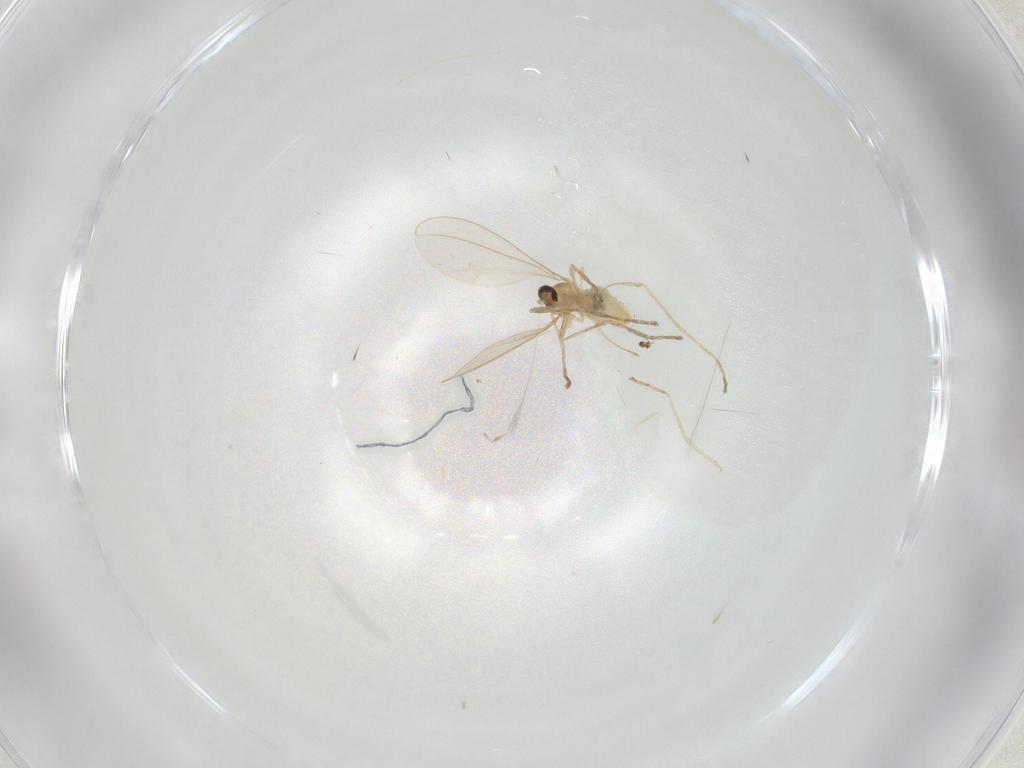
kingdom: Animalia
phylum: Arthropoda
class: Insecta
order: Diptera
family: Cecidomyiidae
